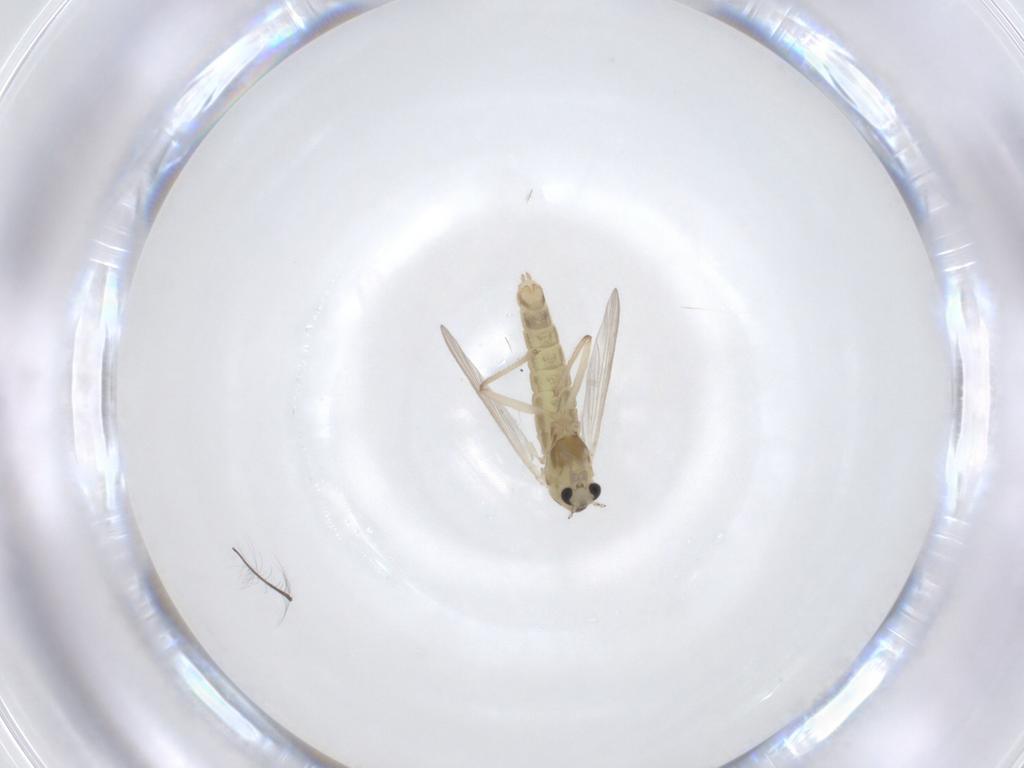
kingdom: Animalia
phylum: Arthropoda
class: Insecta
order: Diptera
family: Chironomidae
